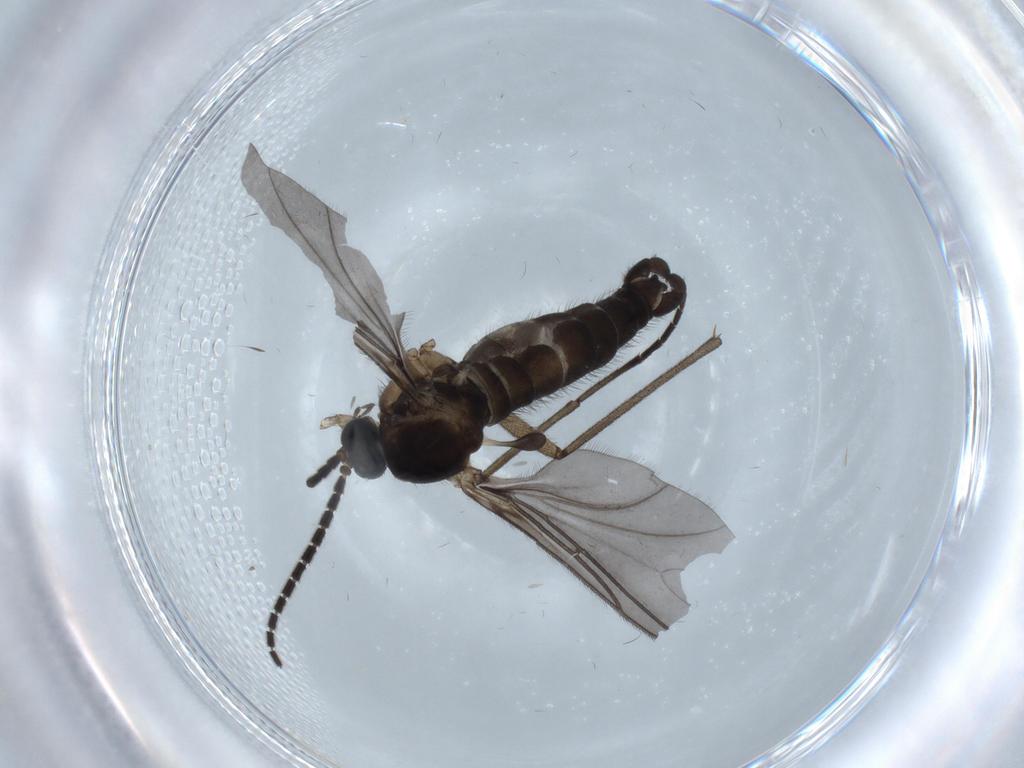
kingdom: Animalia
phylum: Arthropoda
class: Insecta
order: Diptera
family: Sciaridae
